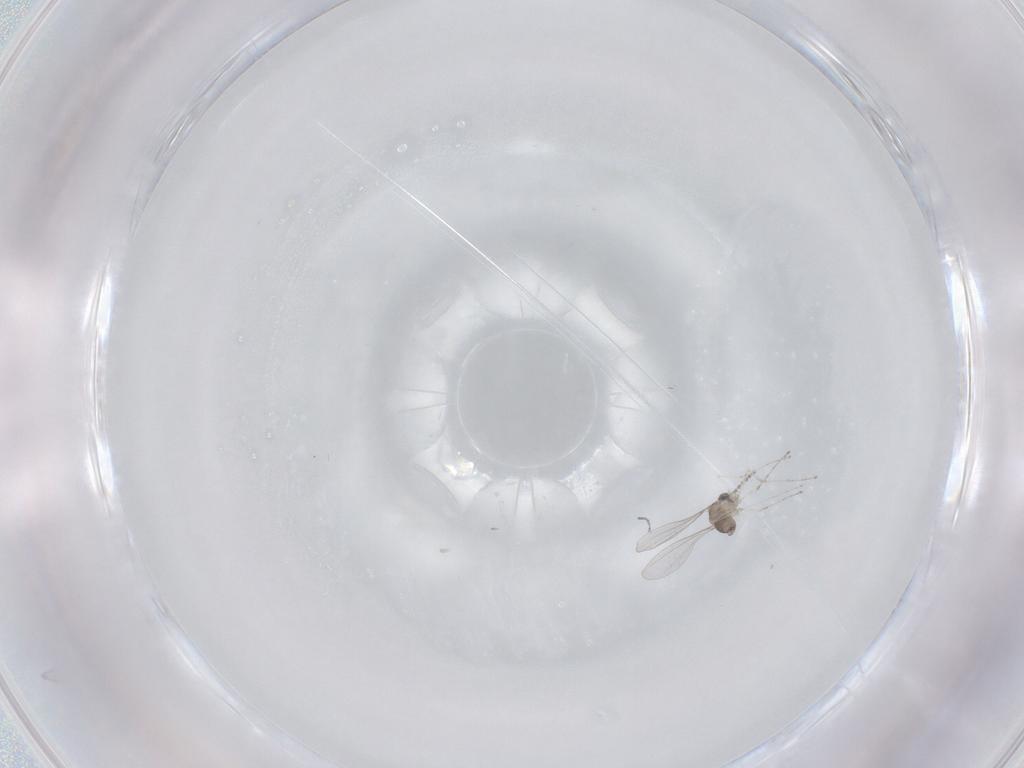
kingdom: Animalia
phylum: Arthropoda
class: Insecta
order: Diptera
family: Cecidomyiidae
